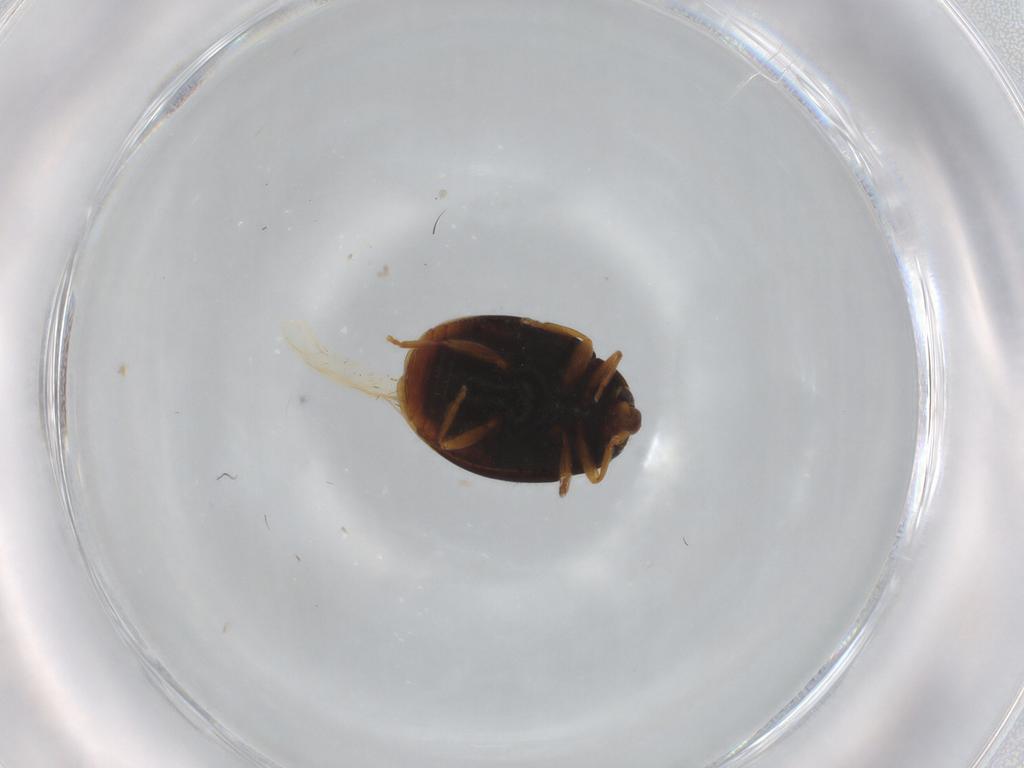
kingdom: Animalia
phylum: Arthropoda
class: Insecta
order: Coleoptera
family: Coccinellidae
